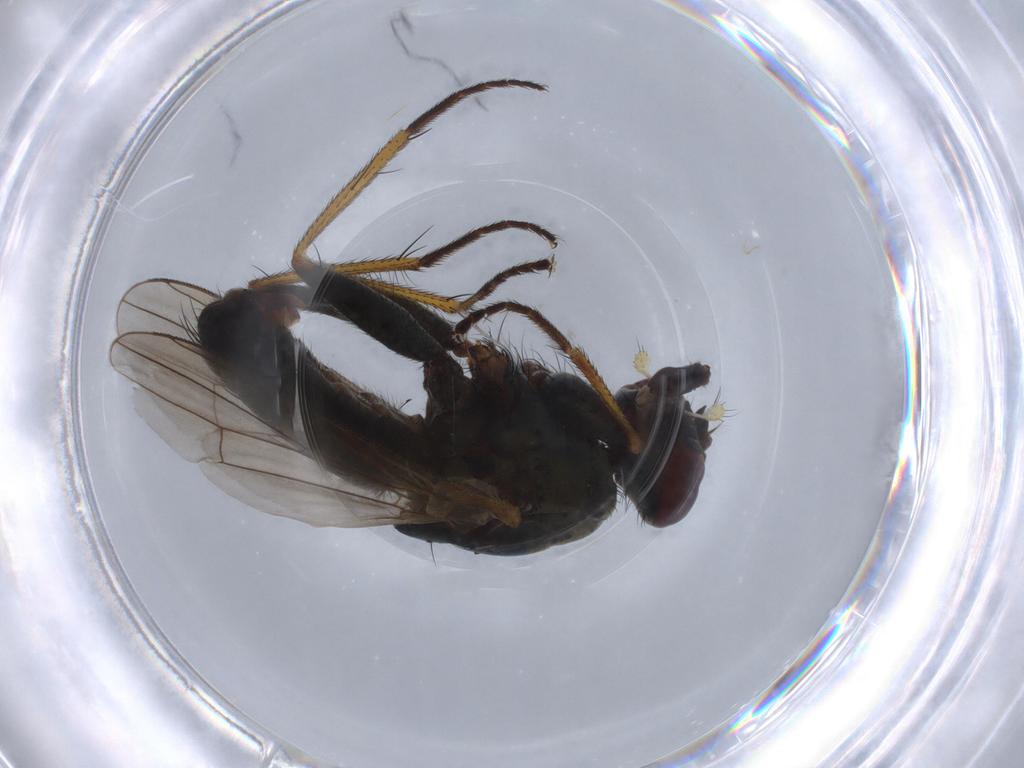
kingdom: Animalia
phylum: Arthropoda
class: Insecta
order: Diptera
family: Muscidae
